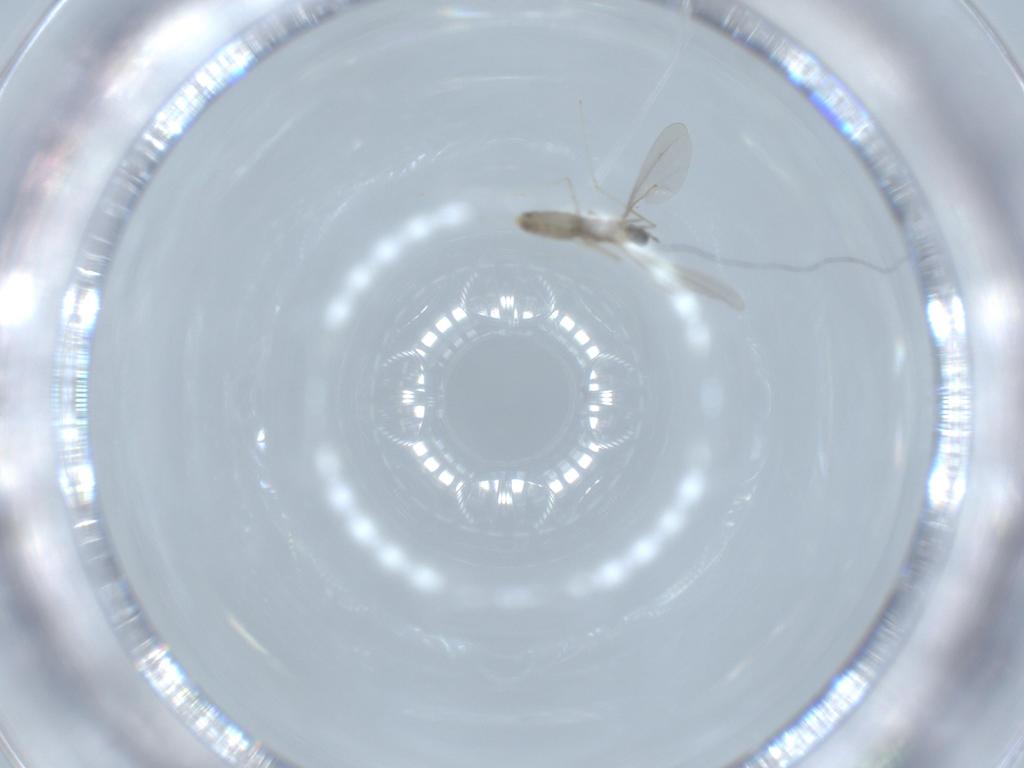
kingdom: Animalia
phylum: Arthropoda
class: Insecta
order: Diptera
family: Cecidomyiidae
